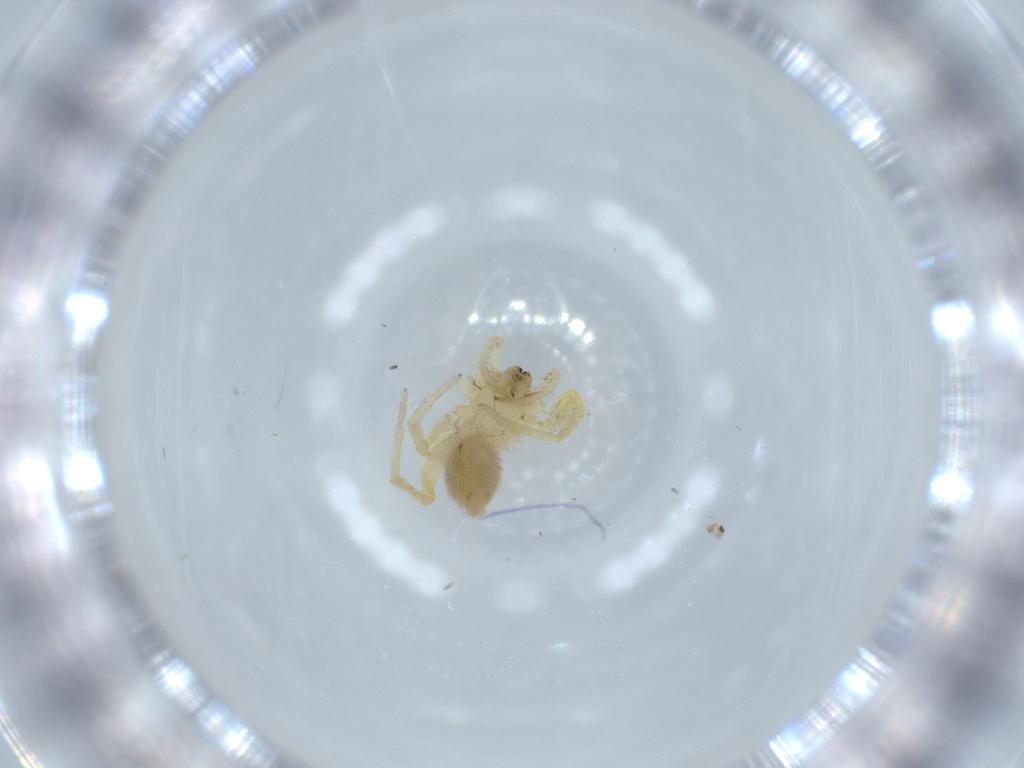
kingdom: Animalia
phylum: Arthropoda
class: Arachnida
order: Araneae
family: Oonopidae
